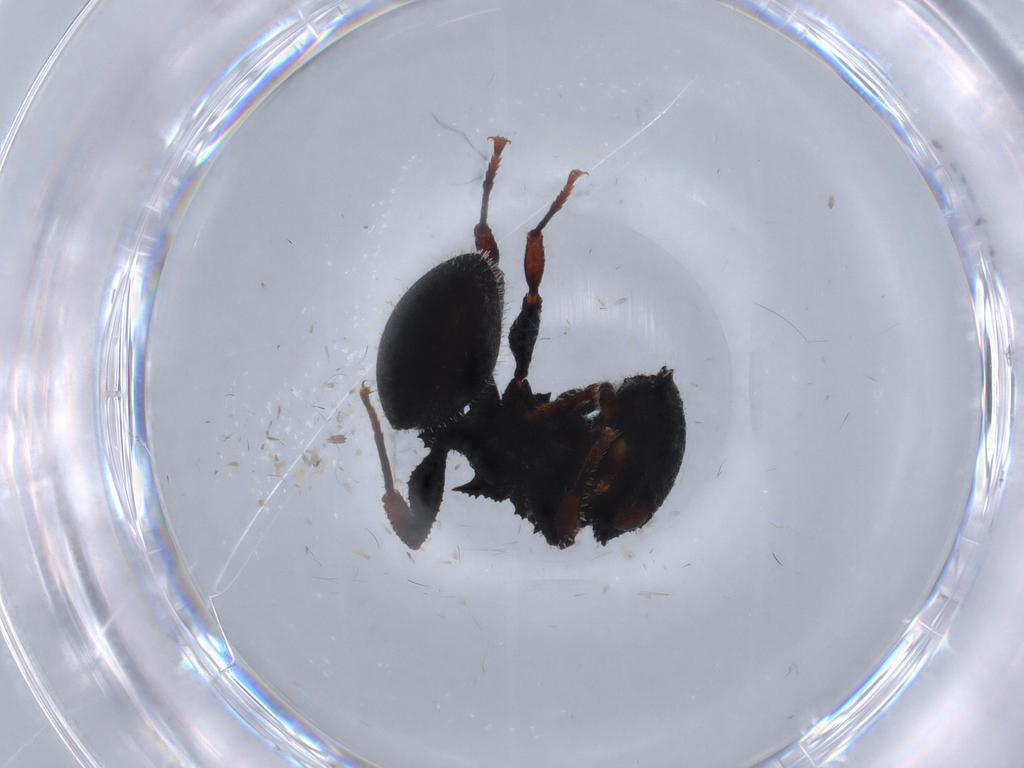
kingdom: Animalia
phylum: Arthropoda
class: Insecta
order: Hymenoptera
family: Formicidae
